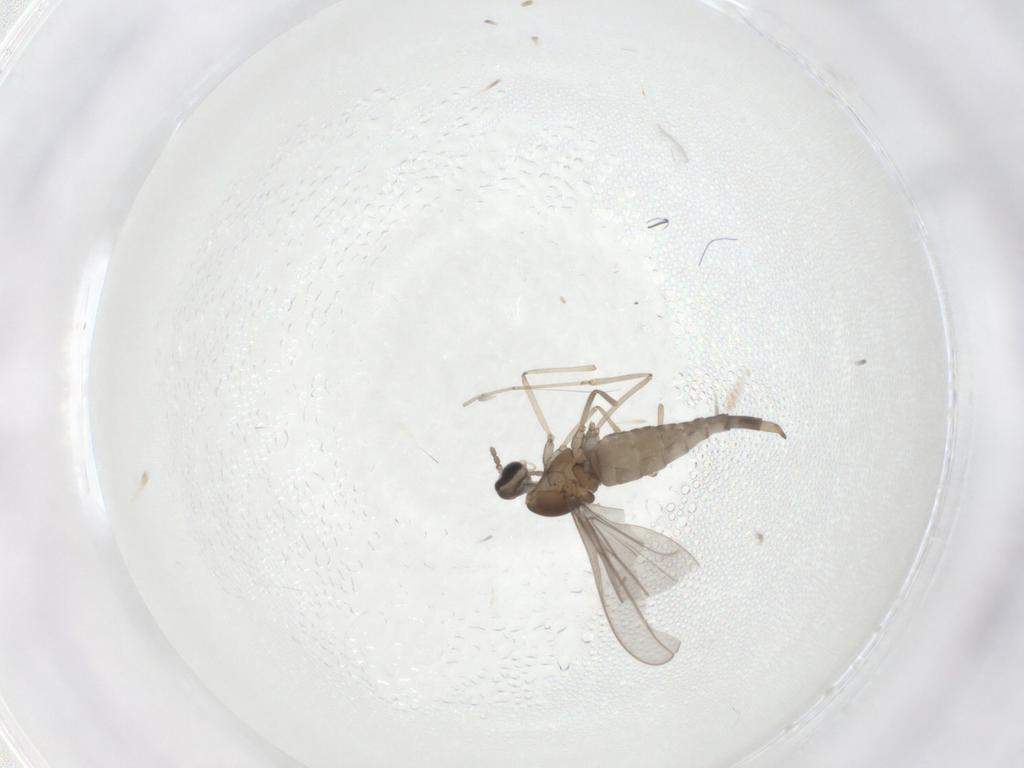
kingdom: Animalia
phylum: Arthropoda
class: Insecta
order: Diptera
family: Cecidomyiidae
